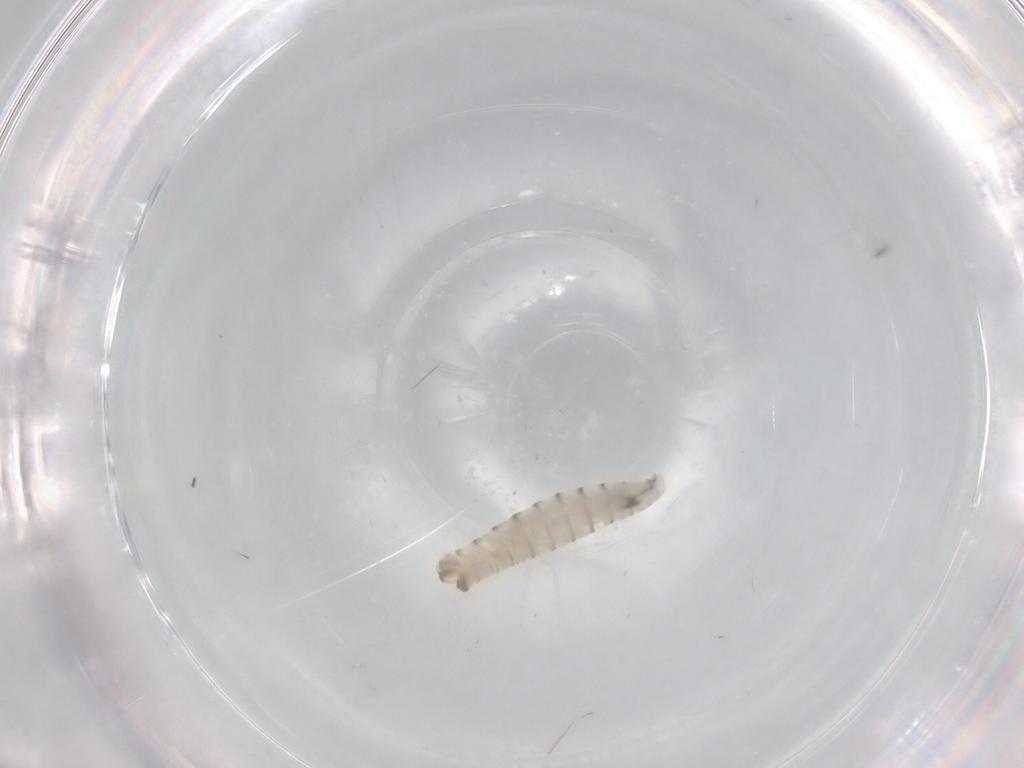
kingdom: Animalia
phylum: Arthropoda
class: Insecta
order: Diptera
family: Sarcophagidae
